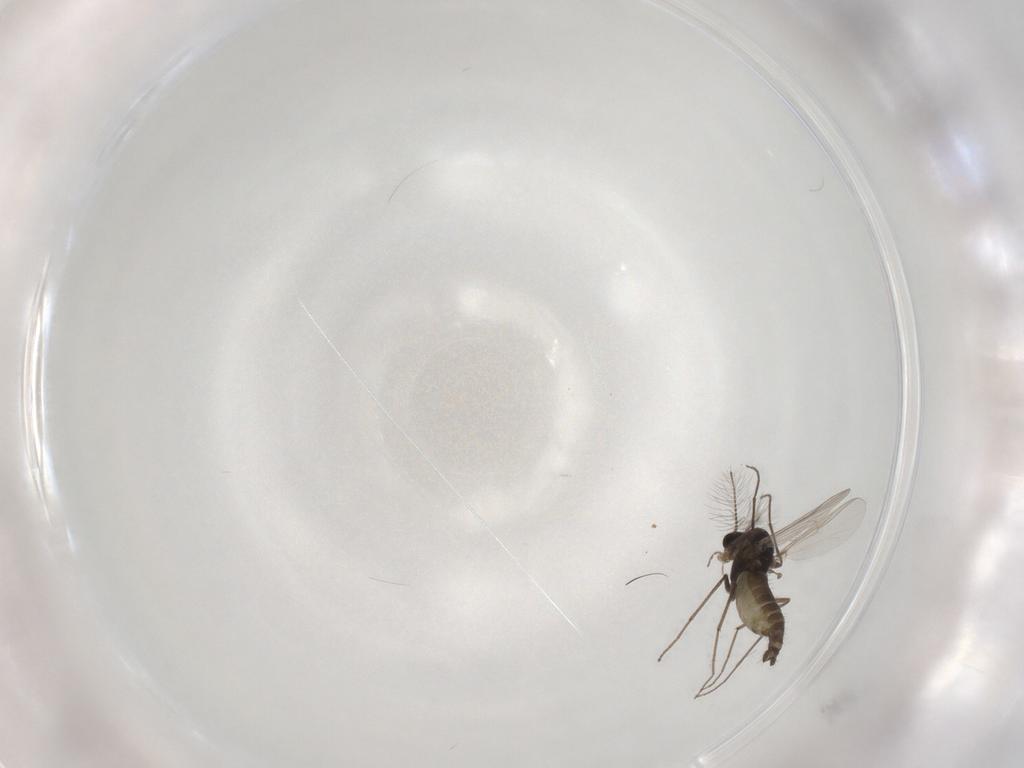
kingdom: Animalia
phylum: Arthropoda
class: Insecta
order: Diptera
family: Chironomidae
